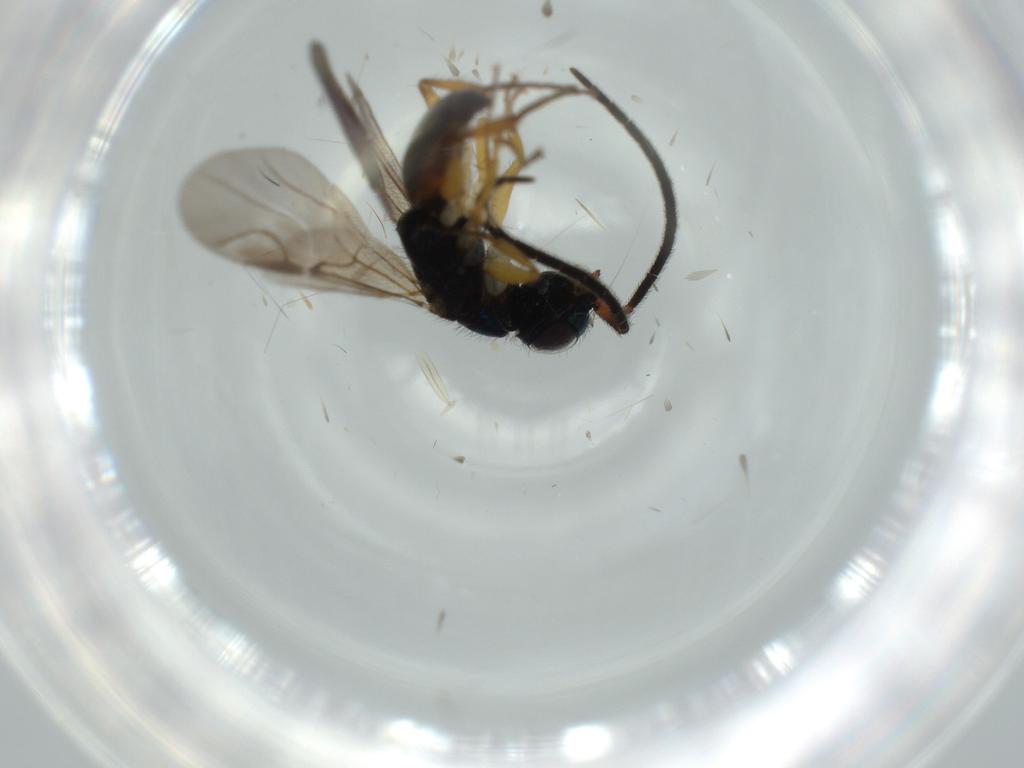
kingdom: Animalia
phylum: Arthropoda
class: Insecta
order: Hymenoptera
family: Chrysididae
